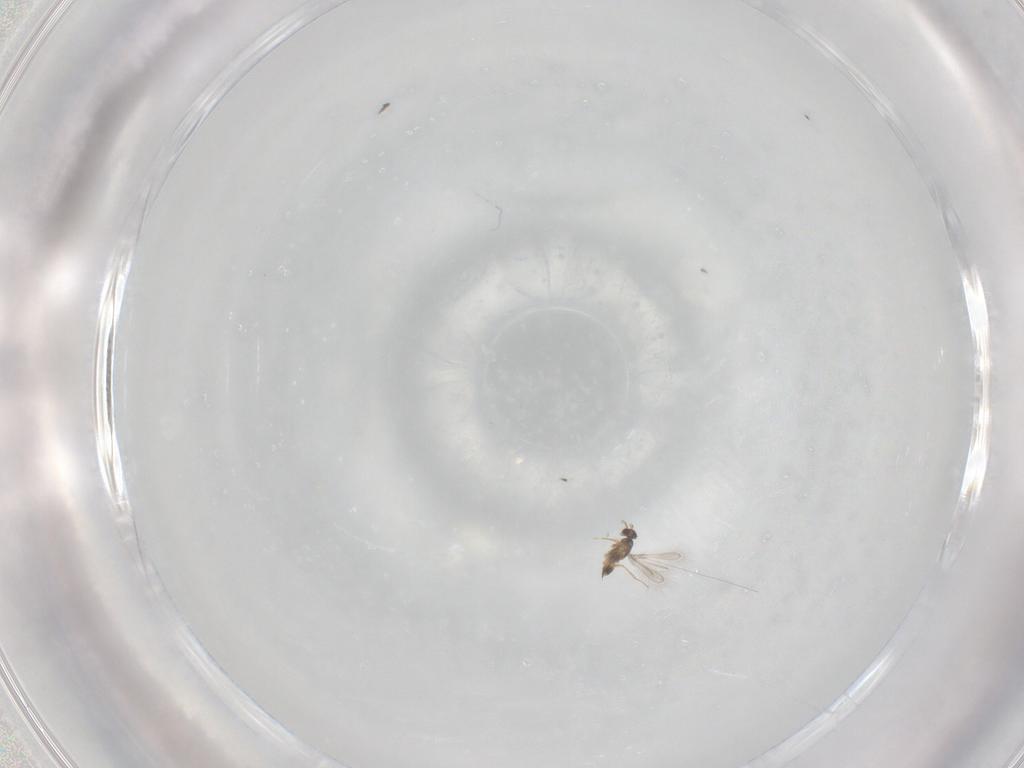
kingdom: Animalia
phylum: Arthropoda
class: Insecta
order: Hymenoptera
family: Mymaridae
